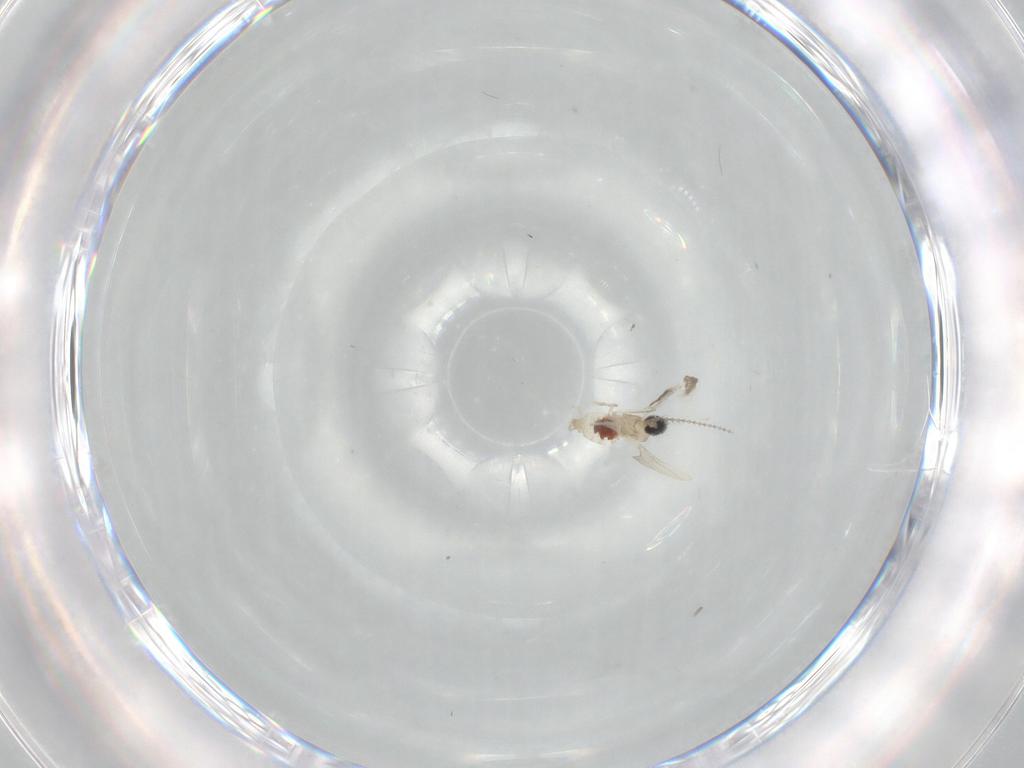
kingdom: Animalia
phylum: Arthropoda
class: Insecta
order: Diptera
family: Cecidomyiidae
